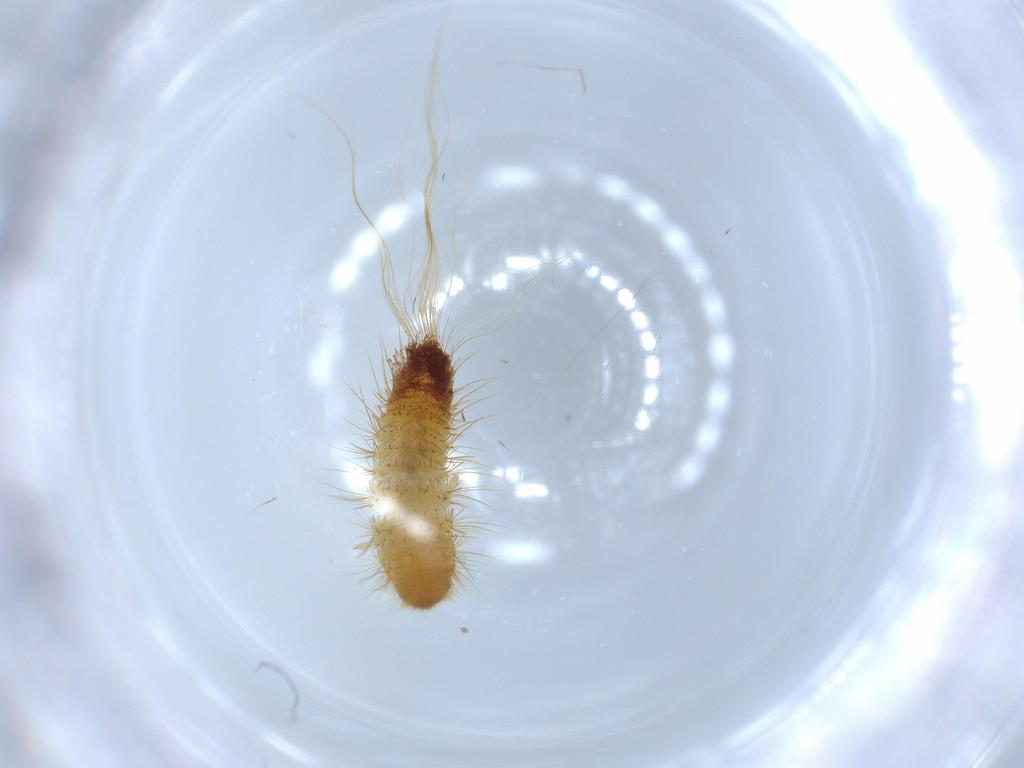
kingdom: Animalia
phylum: Arthropoda
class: Insecta
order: Coleoptera
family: Dermestidae
